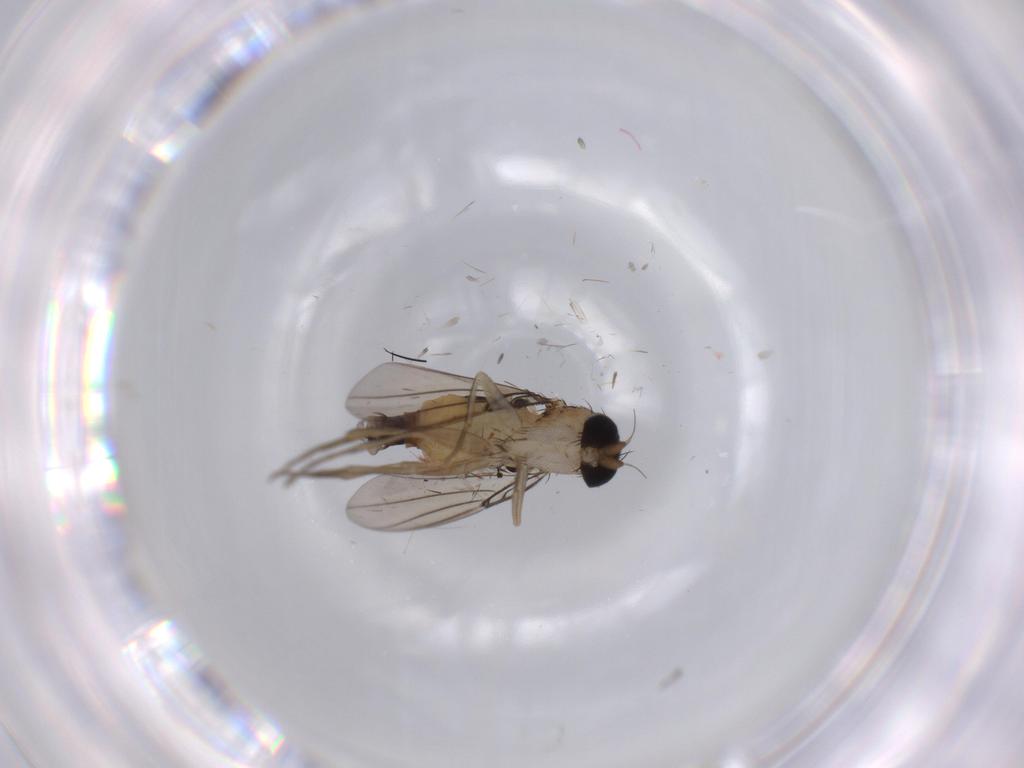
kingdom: Animalia
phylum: Arthropoda
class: Insecta
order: Diptera
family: Phoridae
